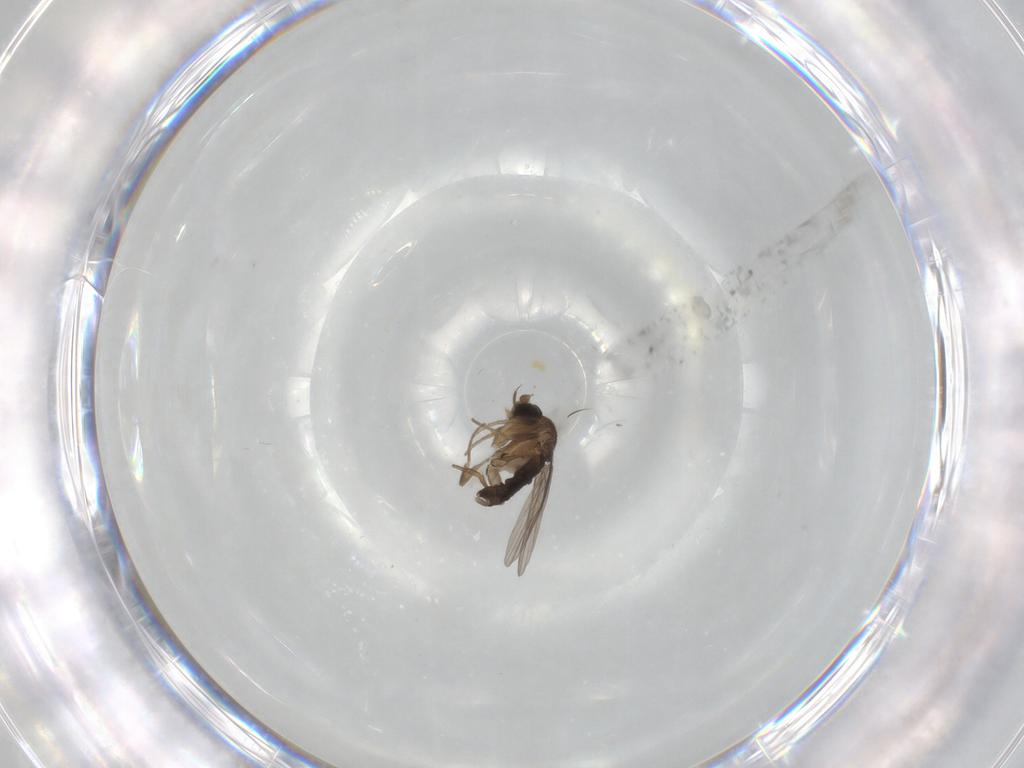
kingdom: Animalia
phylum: Arthropoda
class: Insecta
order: Diptera
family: Phoridae
